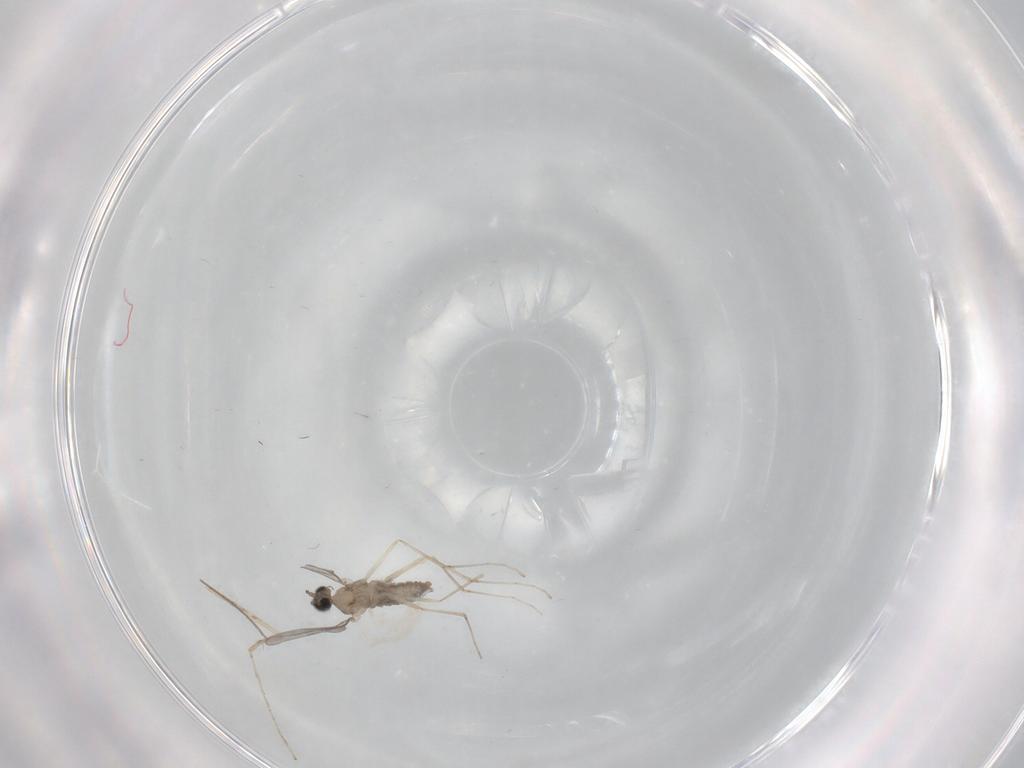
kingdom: Animalia
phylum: Arthropoda
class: Insecta
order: Diptera
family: Cecidomyiidae
